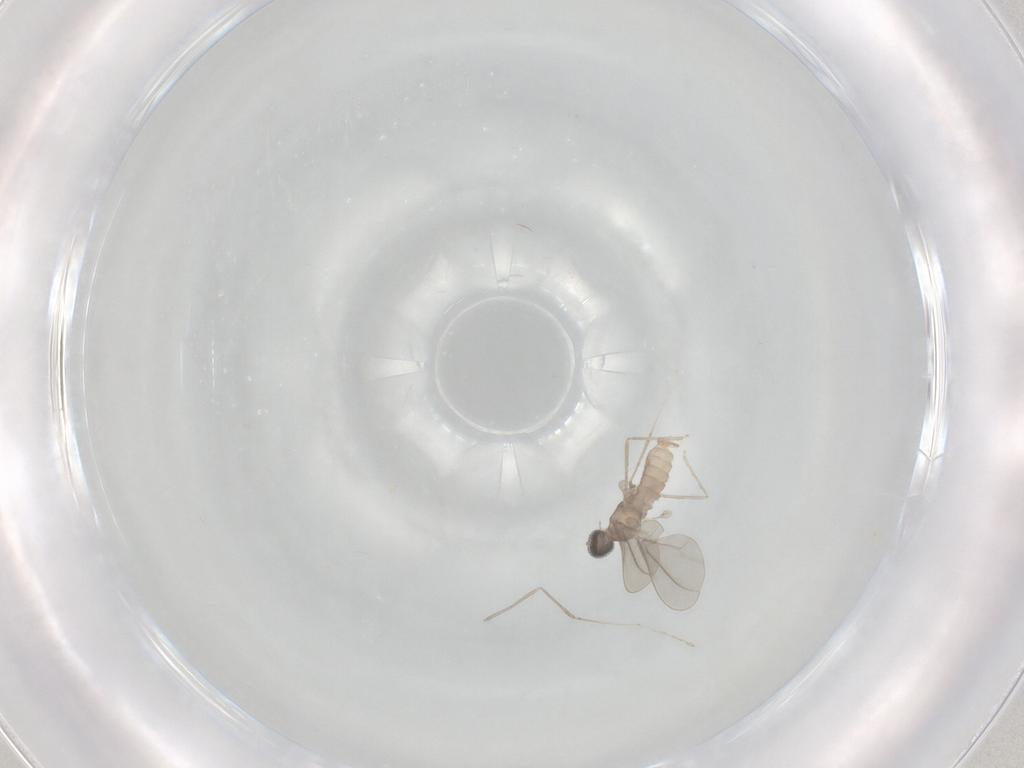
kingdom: Animalia
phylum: Arthropoda
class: Insecta
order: Diptera
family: Cecidomyiidae
